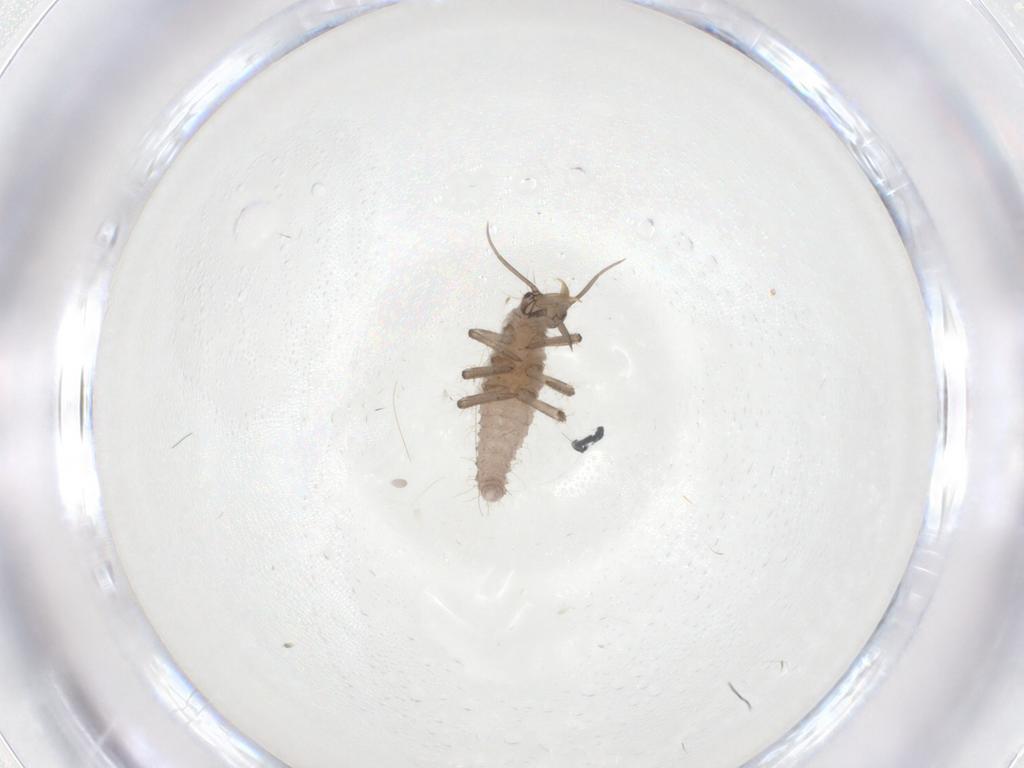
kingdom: Animalia
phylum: Arthropoda
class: Insecta
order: Neuroptera
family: Hemerobiidae
